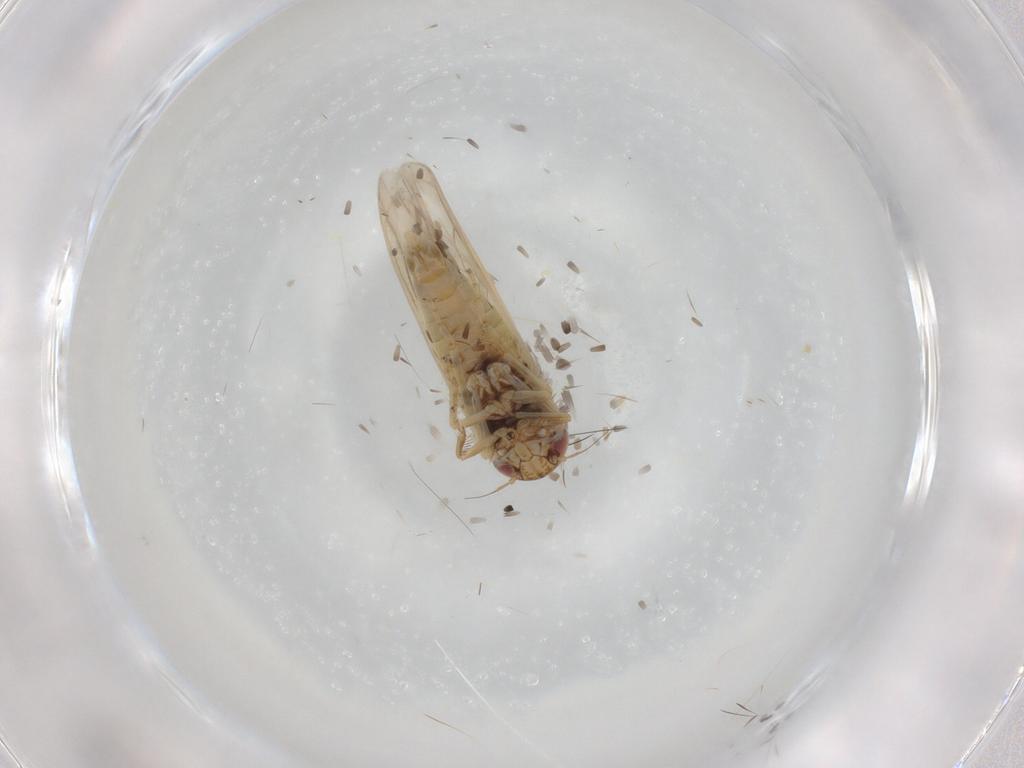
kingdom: Animalia
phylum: Arthropoda
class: Insecta
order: Hemiptera
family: Cicadellidae
